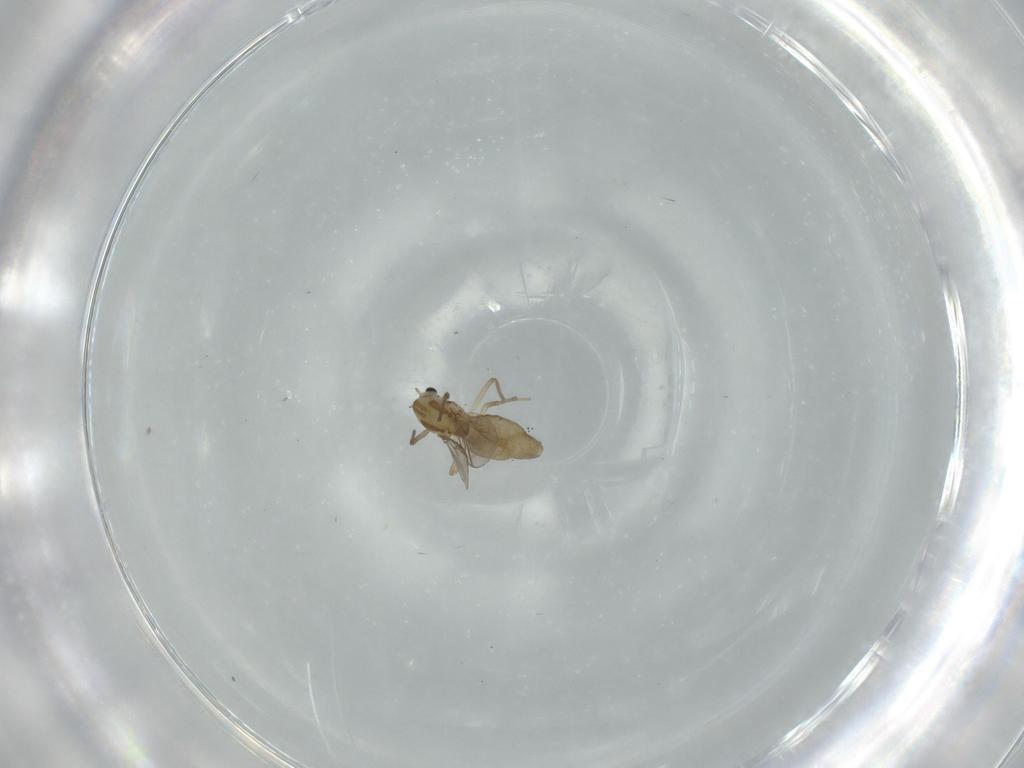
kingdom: Animalia
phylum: Arthropoda
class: Insecta
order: Diptera
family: Chironomidae
